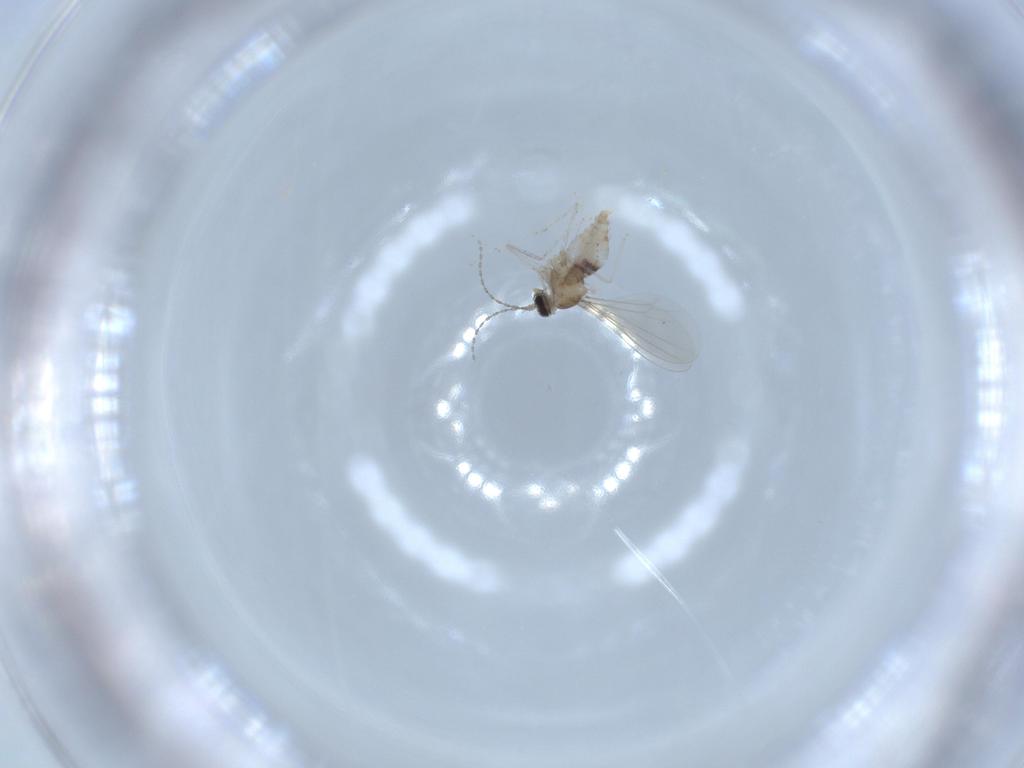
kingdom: Animalia
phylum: Arthropoda
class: Insecta
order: Diptera
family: Cecidomyiidae
